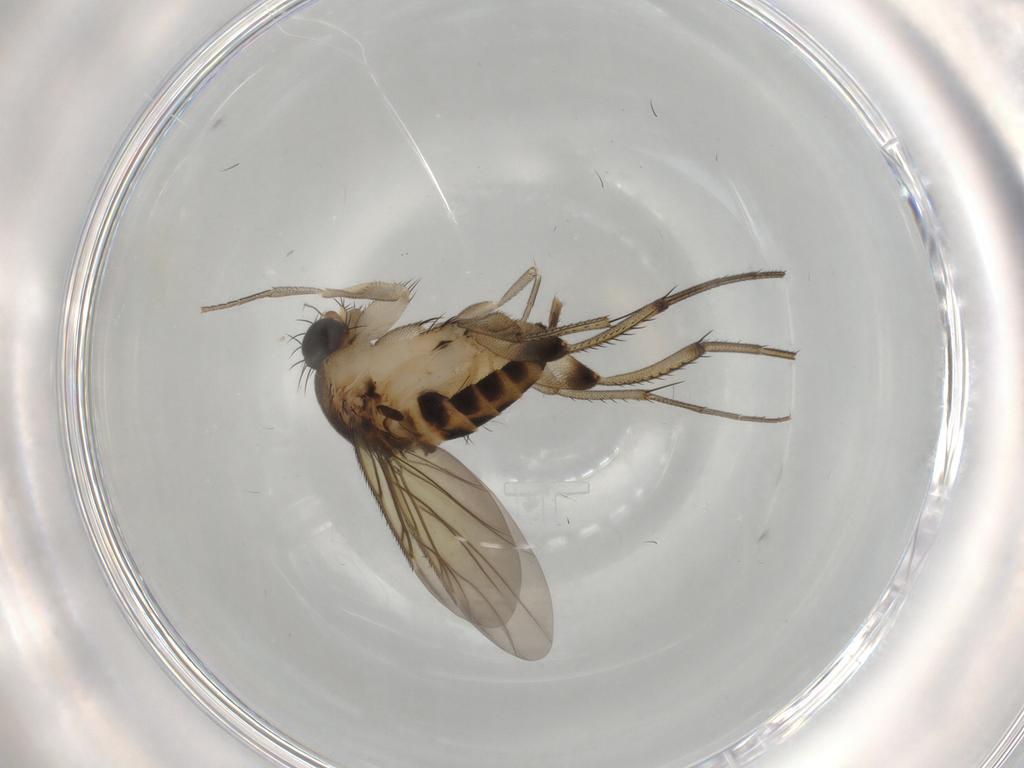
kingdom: Animalia
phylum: Arthropoda
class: Insecta
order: Diptera
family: Phoridae
